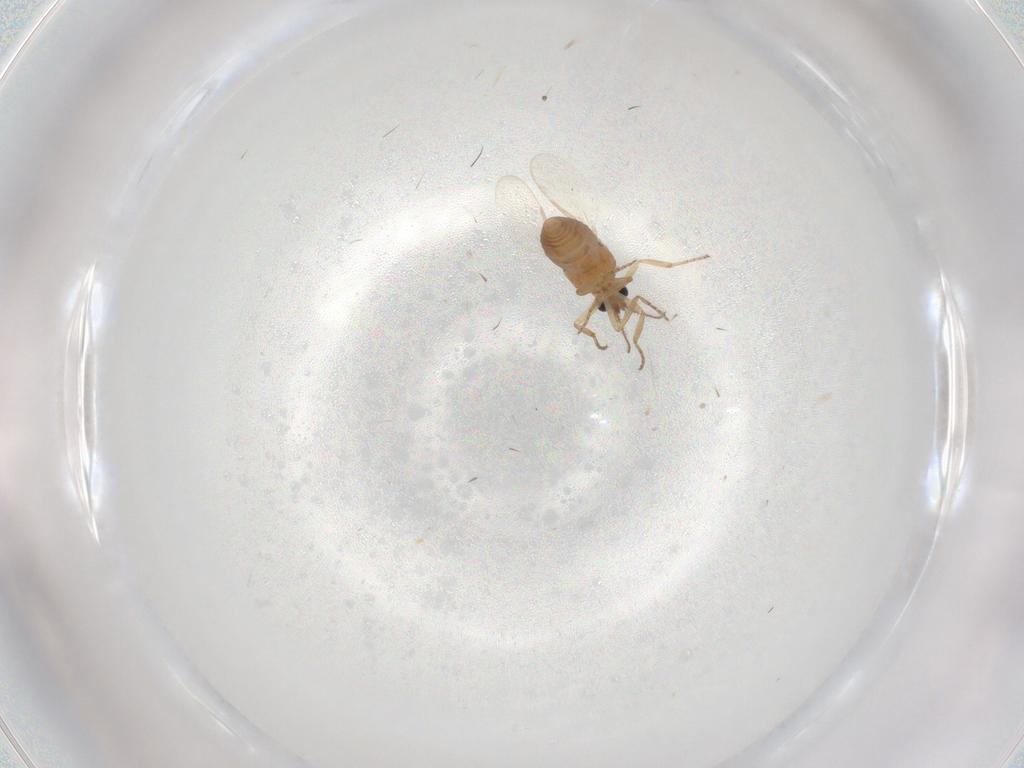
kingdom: Animalia
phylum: Arthropoda
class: Insecta
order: Diptera
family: Ceratopogonidae
